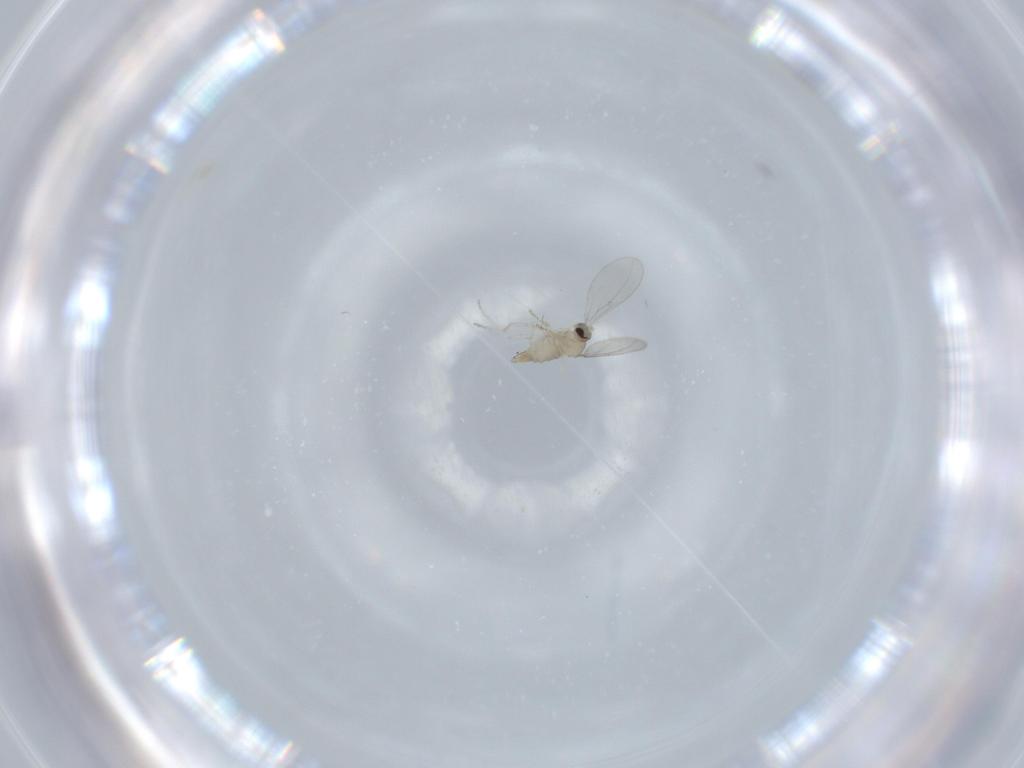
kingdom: Animalia
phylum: Arthropoda
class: Insecta
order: Diptera
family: Cecidomyiidae
